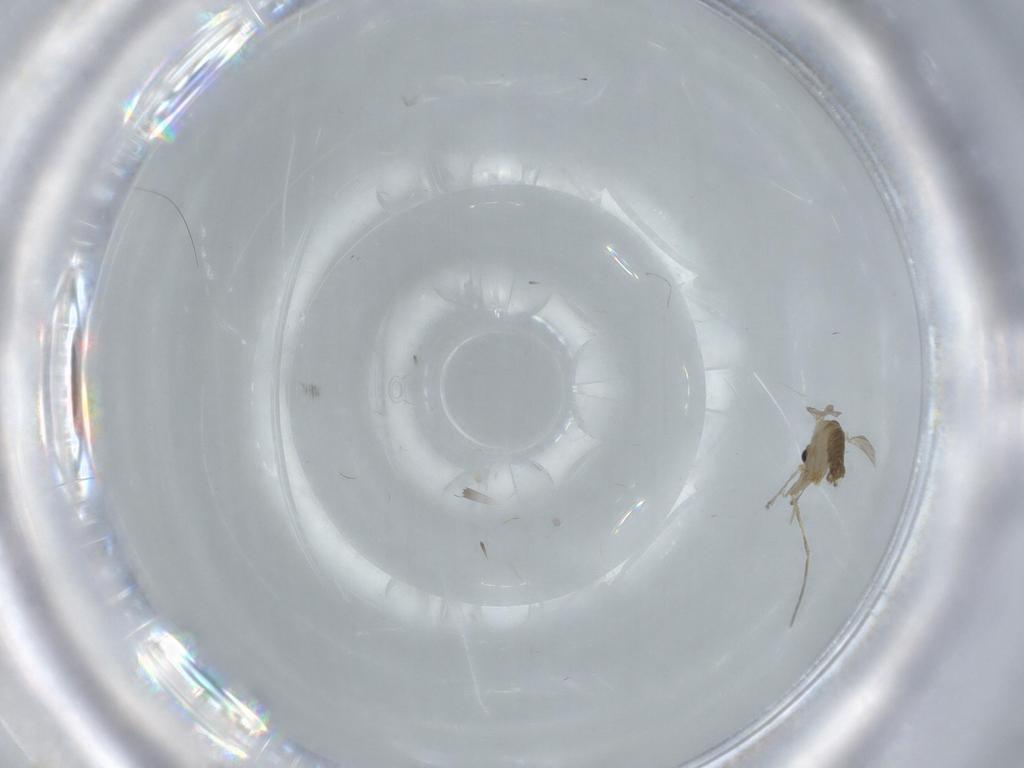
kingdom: Animalia
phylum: Arthropoda
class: Insecta
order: Diptera
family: Psychodidae
